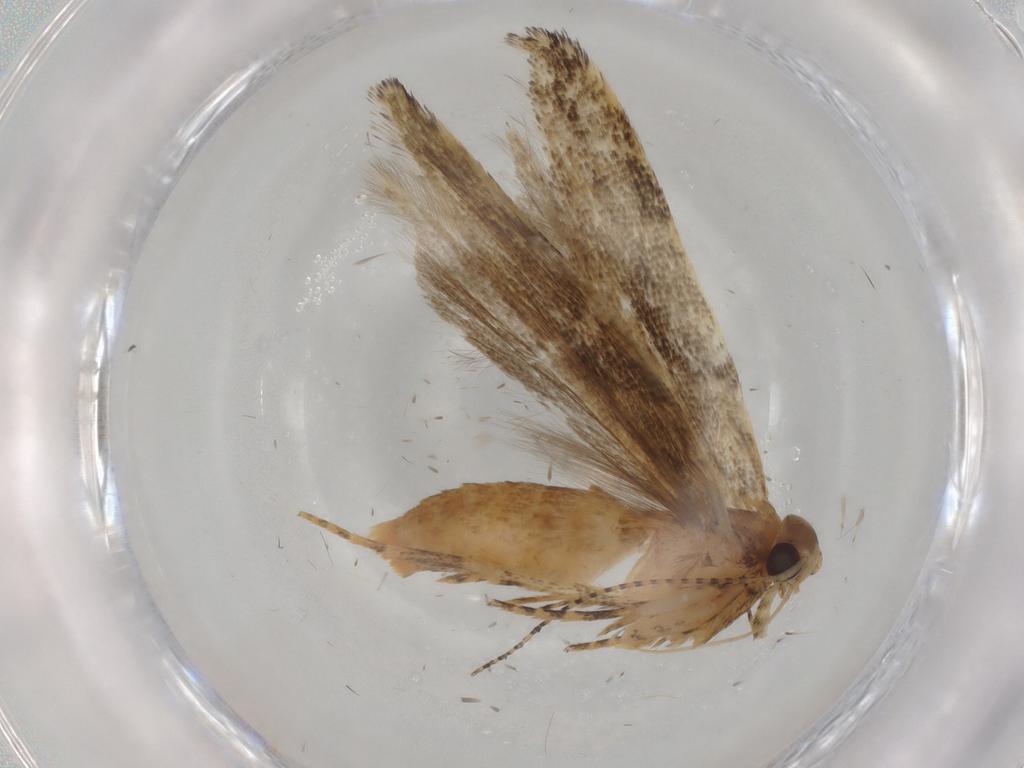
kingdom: Animalia
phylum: Arthropoda
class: Insecta
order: Lepidoptera
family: Gelechiidae
